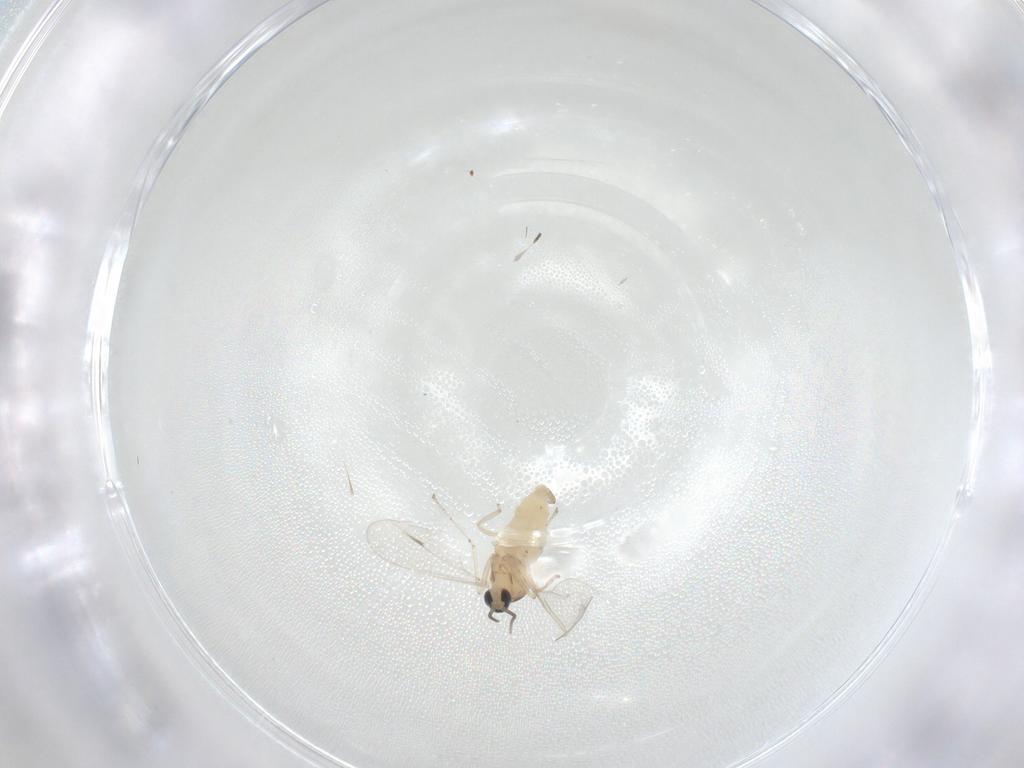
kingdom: Animalia
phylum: Arthropoda
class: Insecta
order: Diptera
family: Cecidomyiidae
